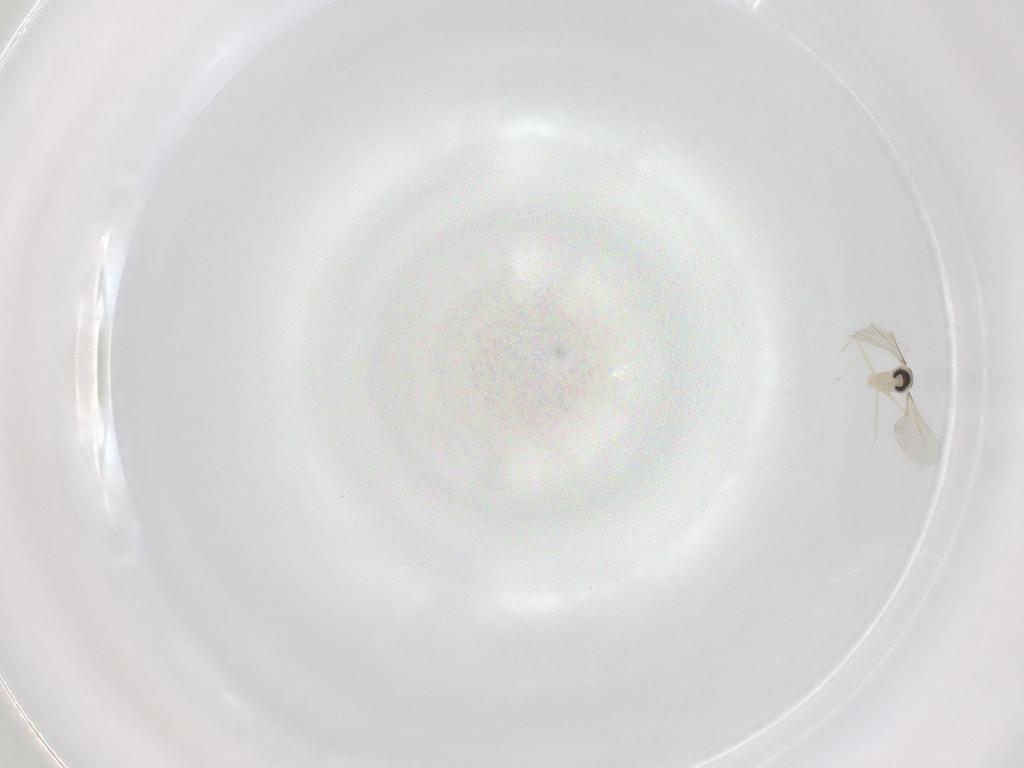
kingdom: Animalia
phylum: Arthropoda
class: Insecta
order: Diptera
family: Cecidomyiidae
